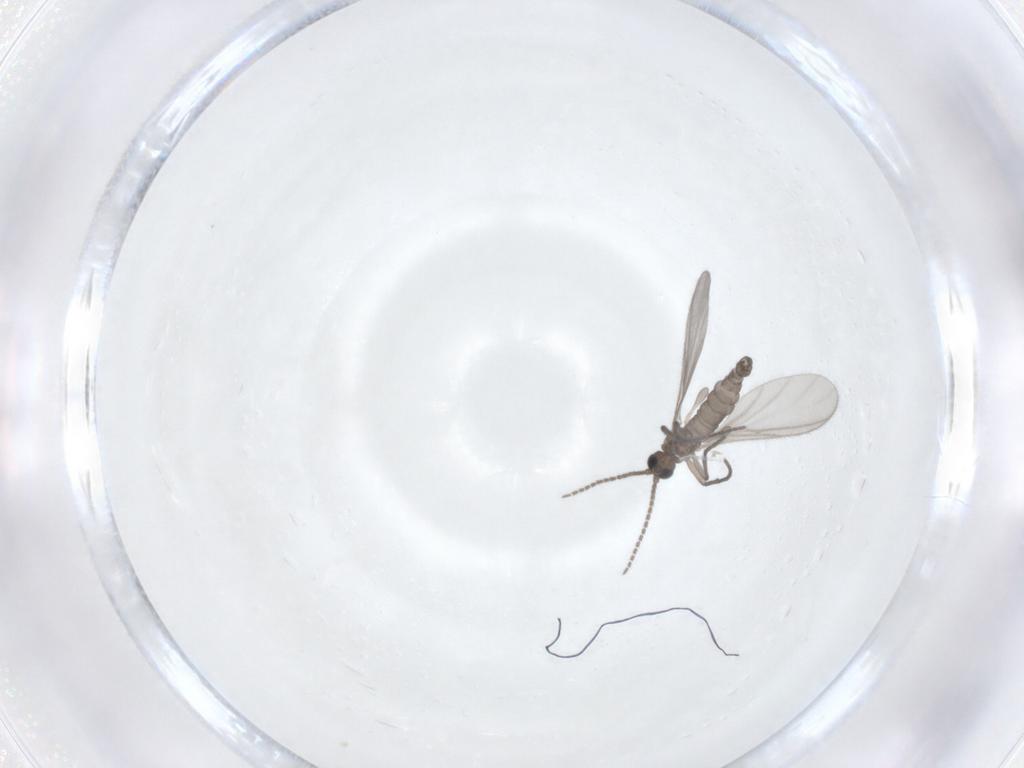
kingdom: Animalia
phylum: Arthropoda
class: Insecta
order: Diptera
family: Sciaridae
